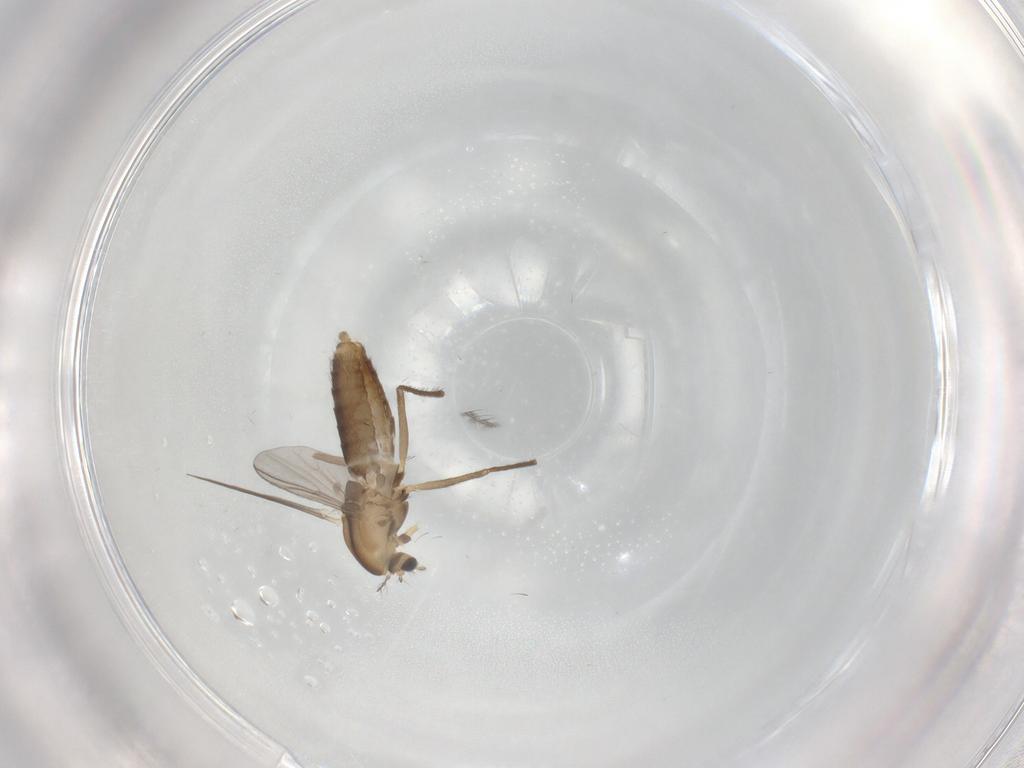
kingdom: Animalia
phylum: Arthropoda
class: Insecta
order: Diptera
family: Chironomidae
